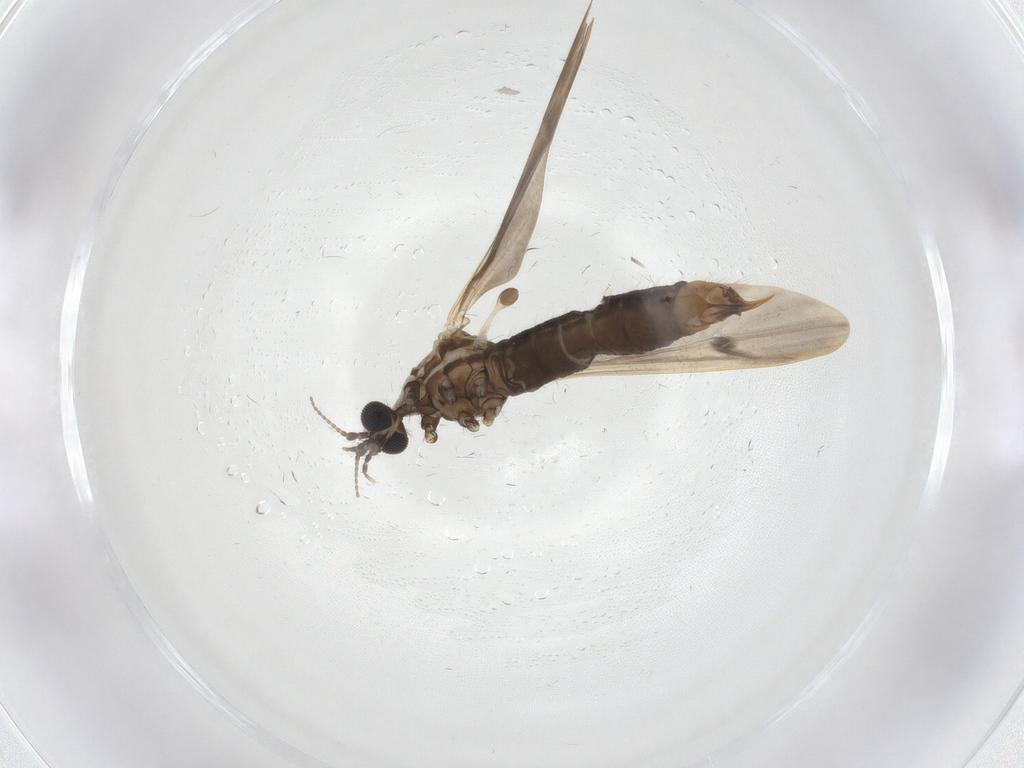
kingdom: Animalia
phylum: Arthropoda
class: Insecta
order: Diptera
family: Limoniidae
